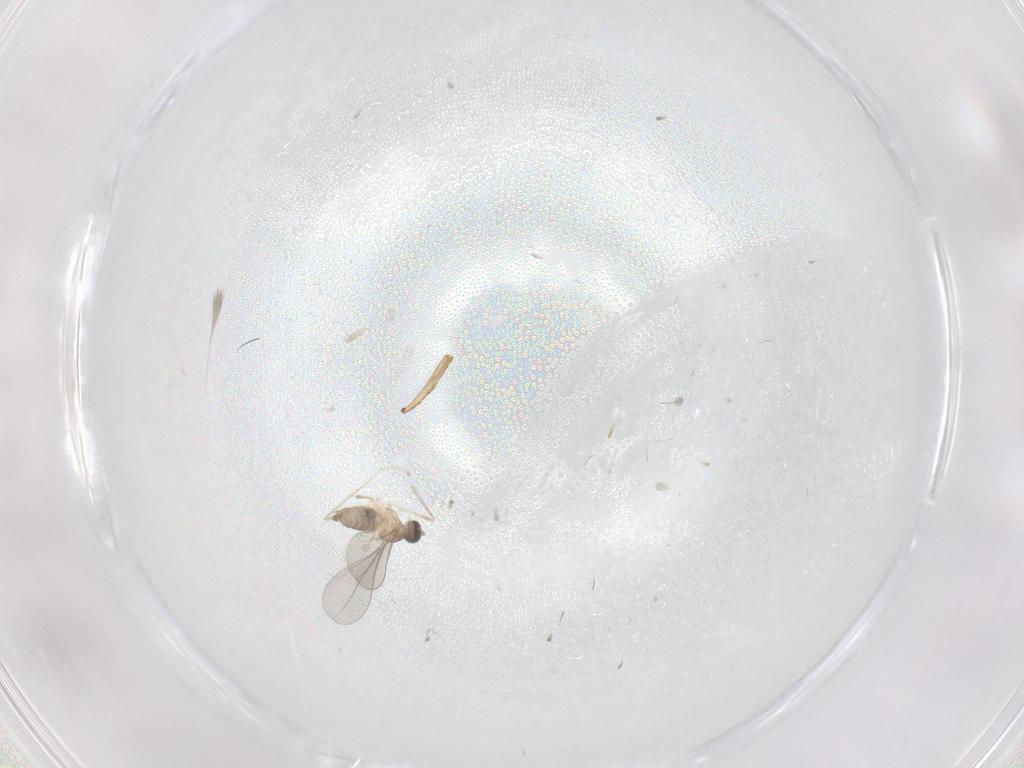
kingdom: Animalia
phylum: Arthropoda
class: Insecta
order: Diptera
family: Phoridae
